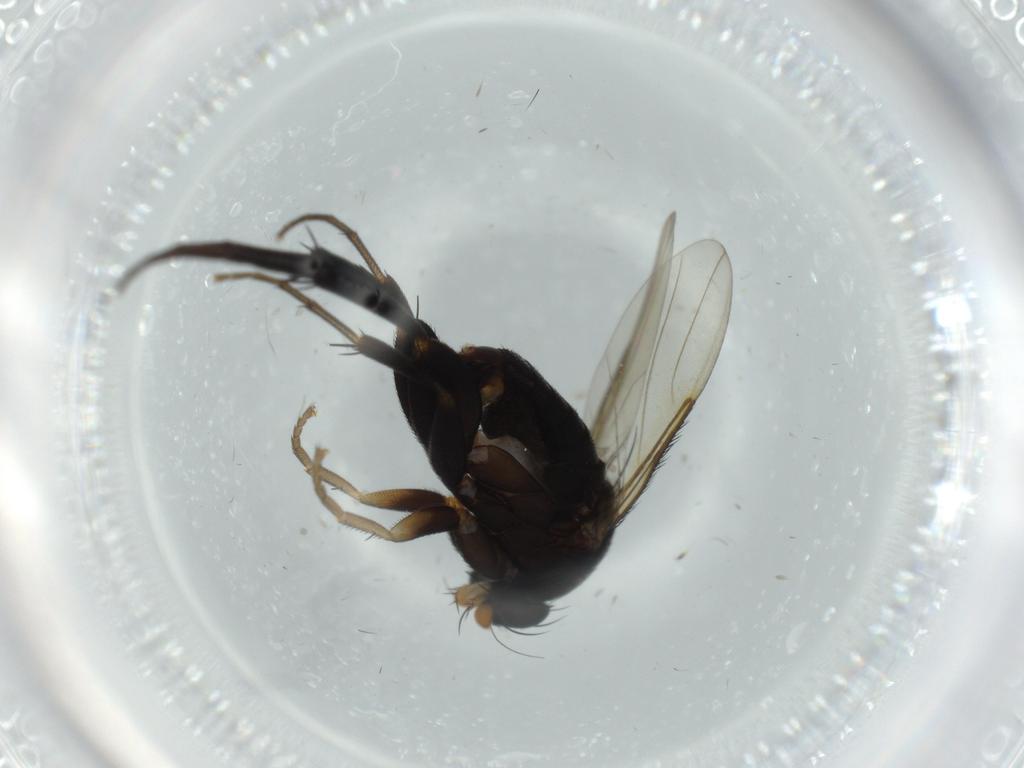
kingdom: Animalia
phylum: Arthropoda
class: Insecta
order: Diptera
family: Phoridae
